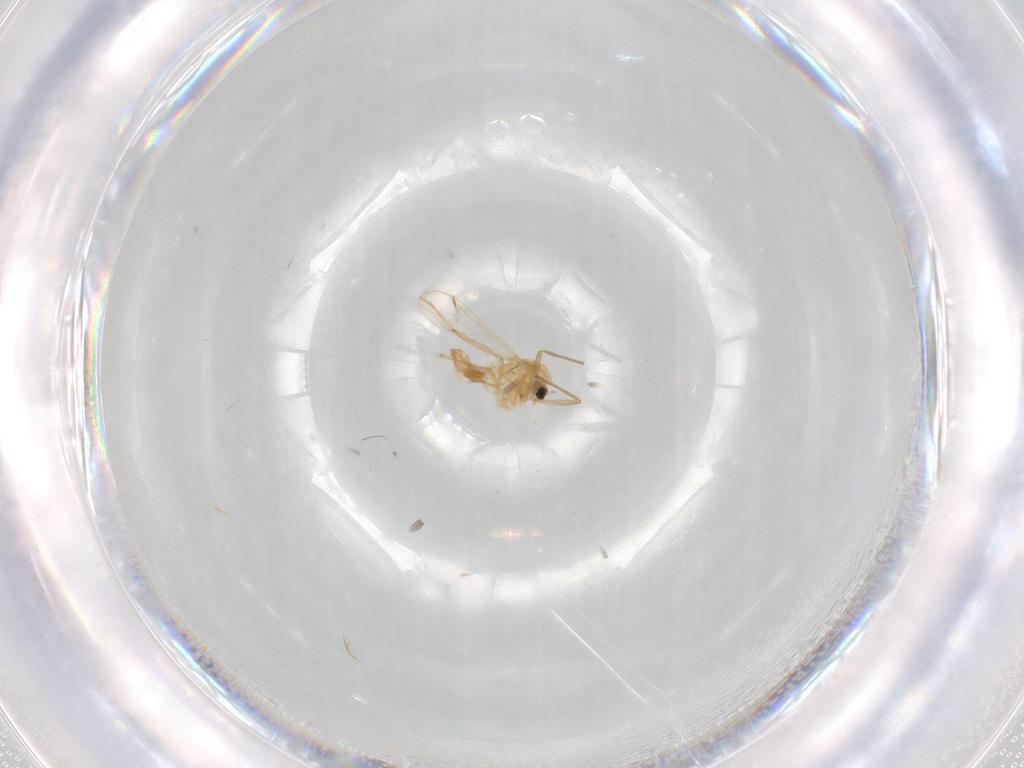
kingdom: Animalia
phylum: Arthropoda
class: Insecta
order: Diptera
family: Chironomidae
